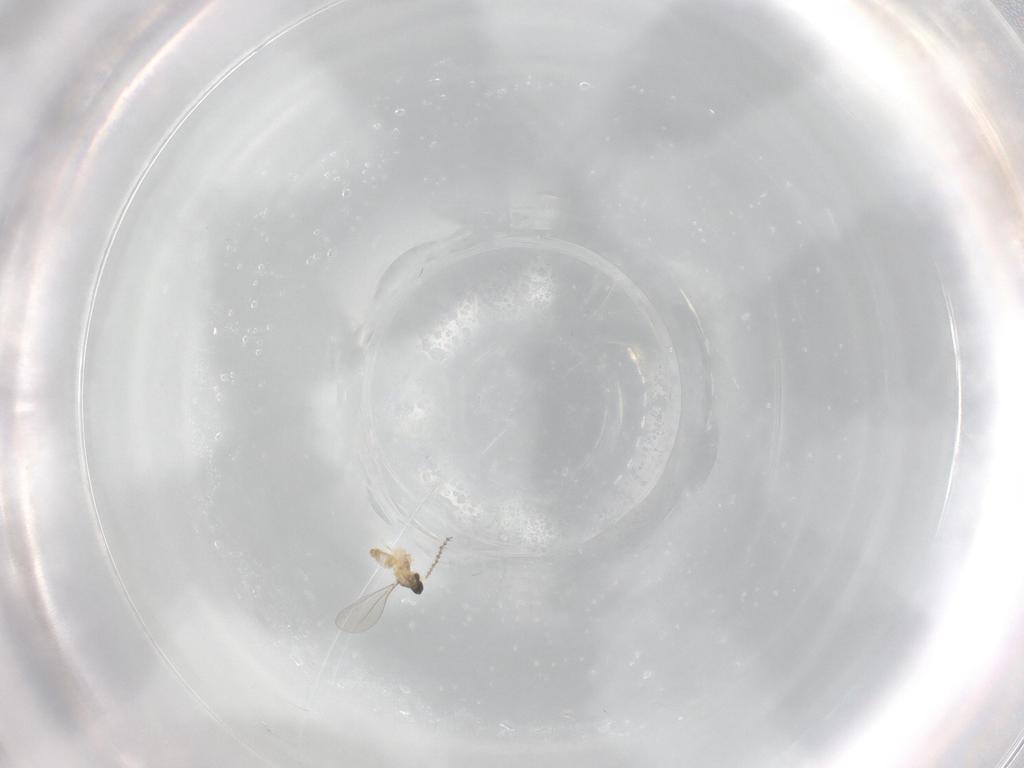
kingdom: Animalia
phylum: Arthropoda
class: Insecta
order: Diptera
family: Cecidomyiidae
